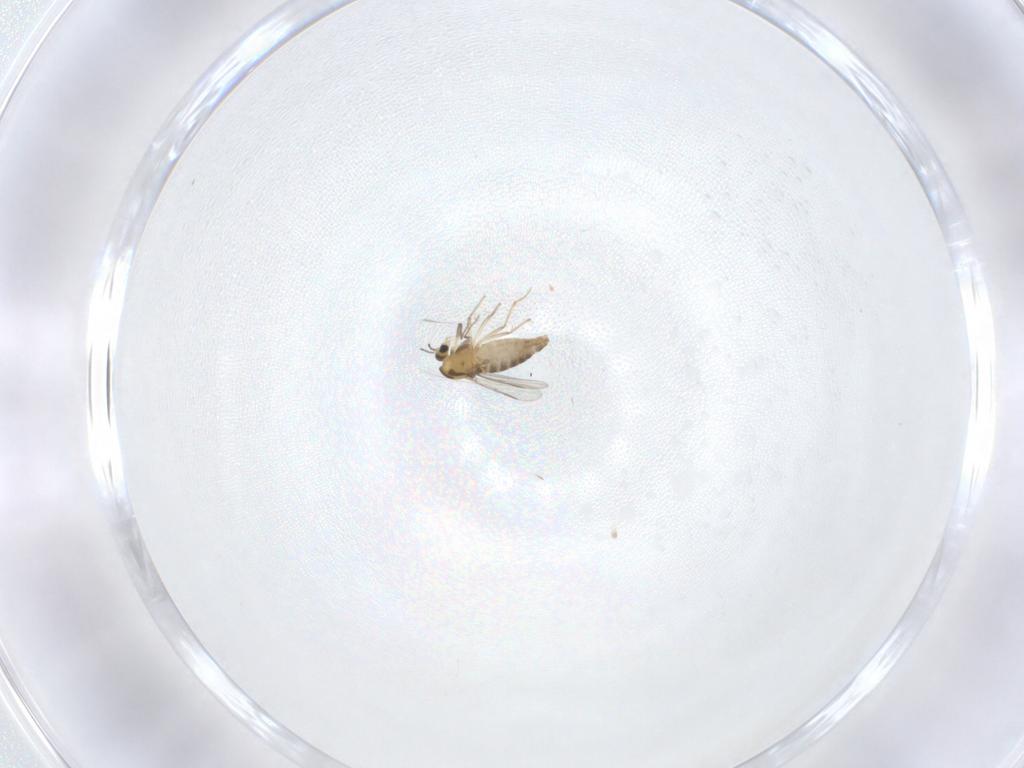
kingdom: Animalia
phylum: Arthropoda
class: Insecta
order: Diptera
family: Chironomidae
